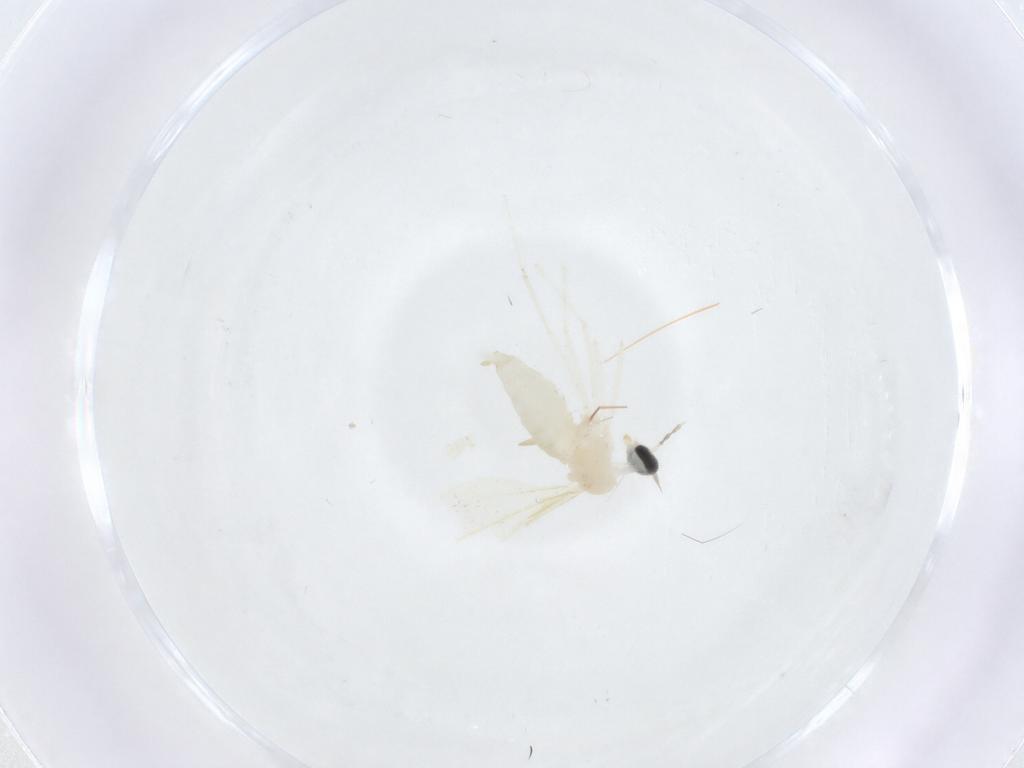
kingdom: Animalia
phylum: Arthropoda
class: Insecta
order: Diptera
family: Cecidomyiidae
